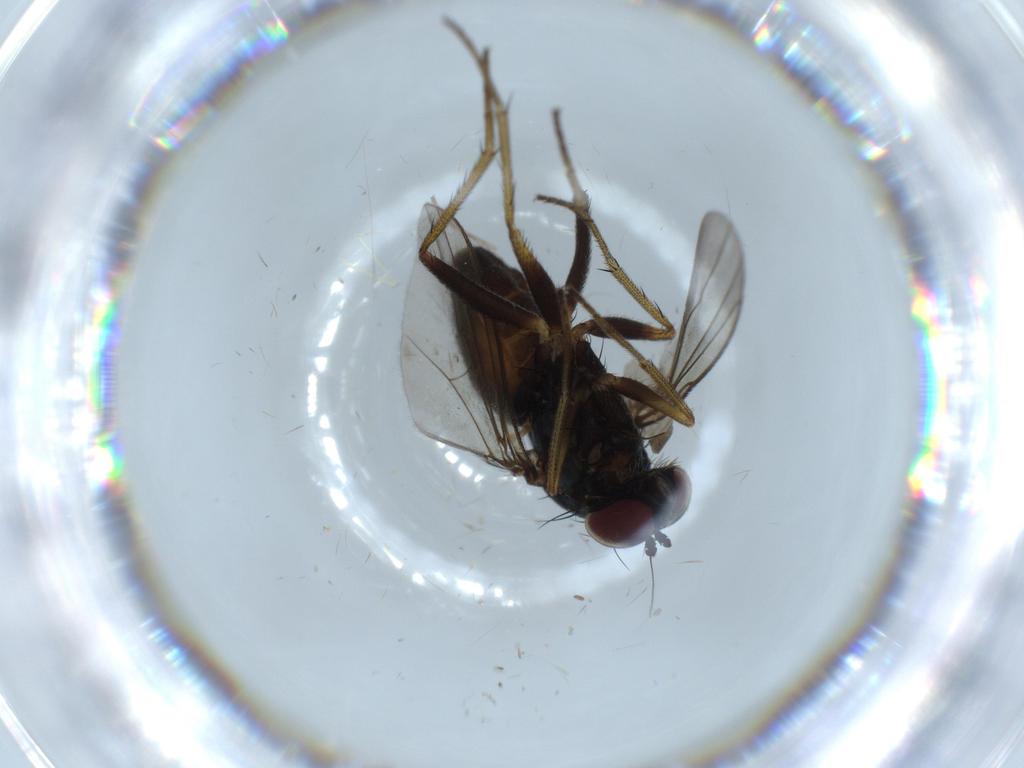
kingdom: Animalia
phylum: Arthropoda
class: Insecta
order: Diptera
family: Cecidomyiidae
